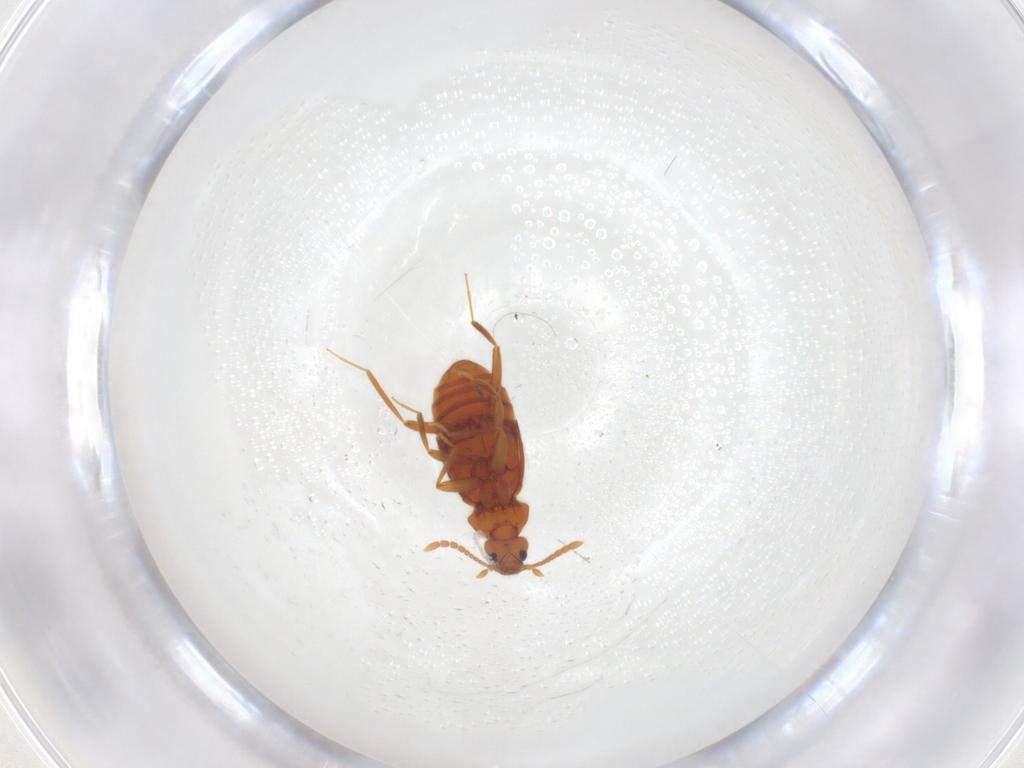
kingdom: Animalia
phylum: Arthropoda
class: Insecta
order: Coleoptera
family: Staphylinidae
